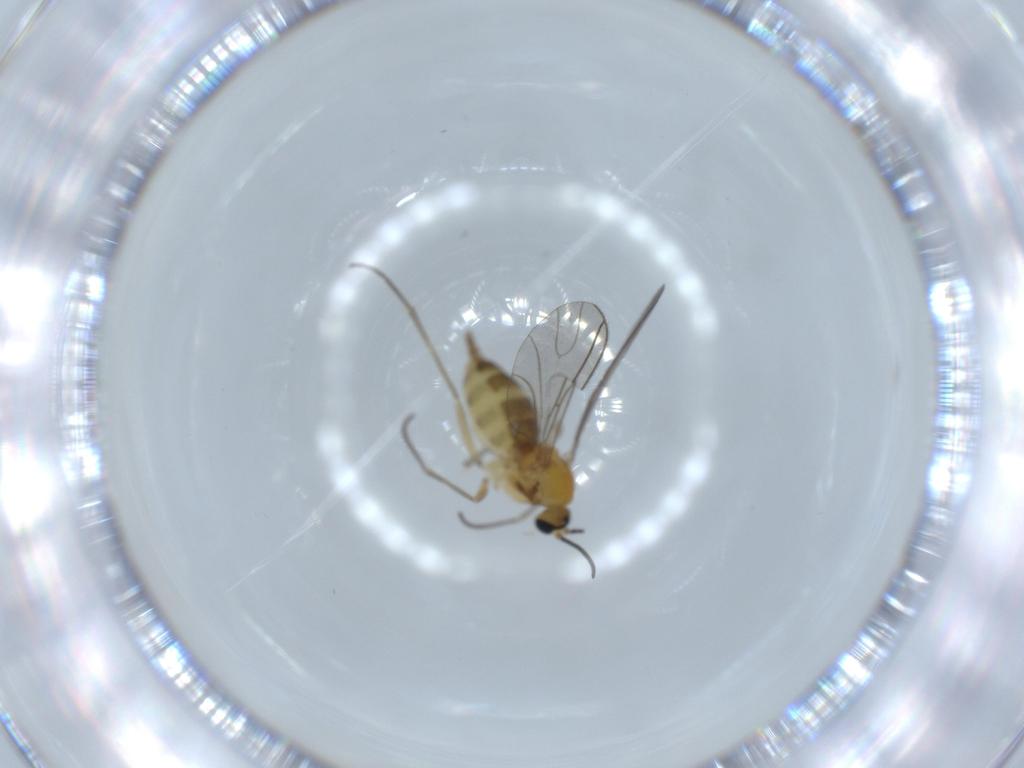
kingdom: Animalia
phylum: Arthropoda
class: Insecta
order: Diptera
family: Sciaridae
